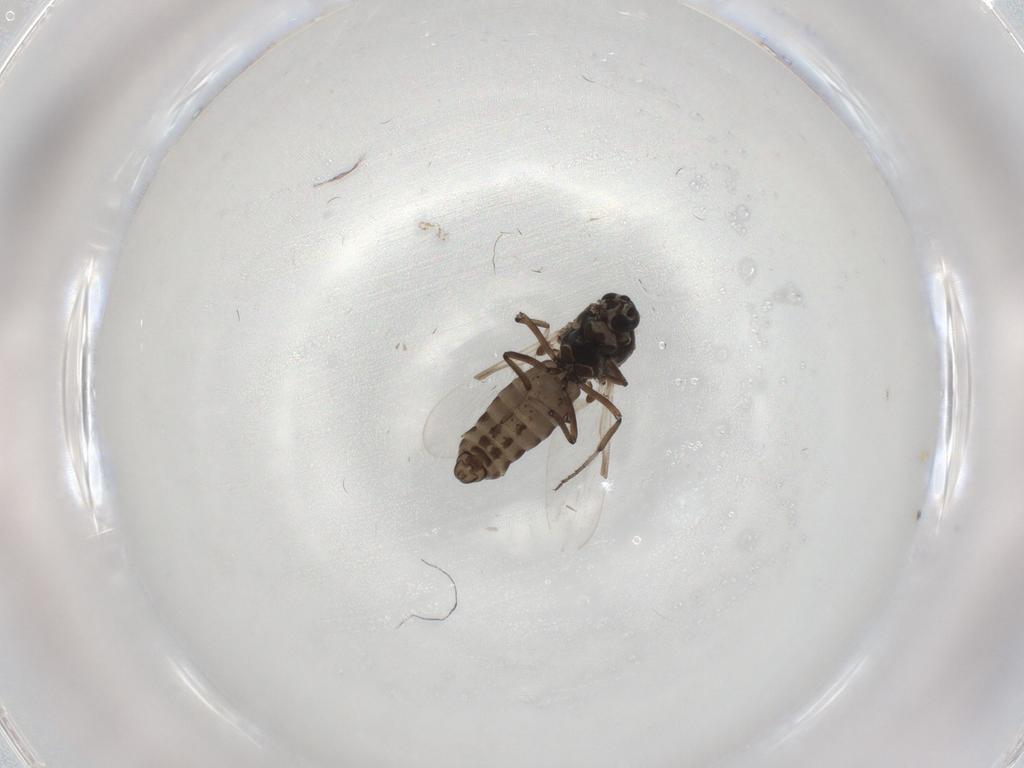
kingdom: Animalia
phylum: Arthropoda
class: Insecta
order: Diptera
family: Ceratopogonidae
